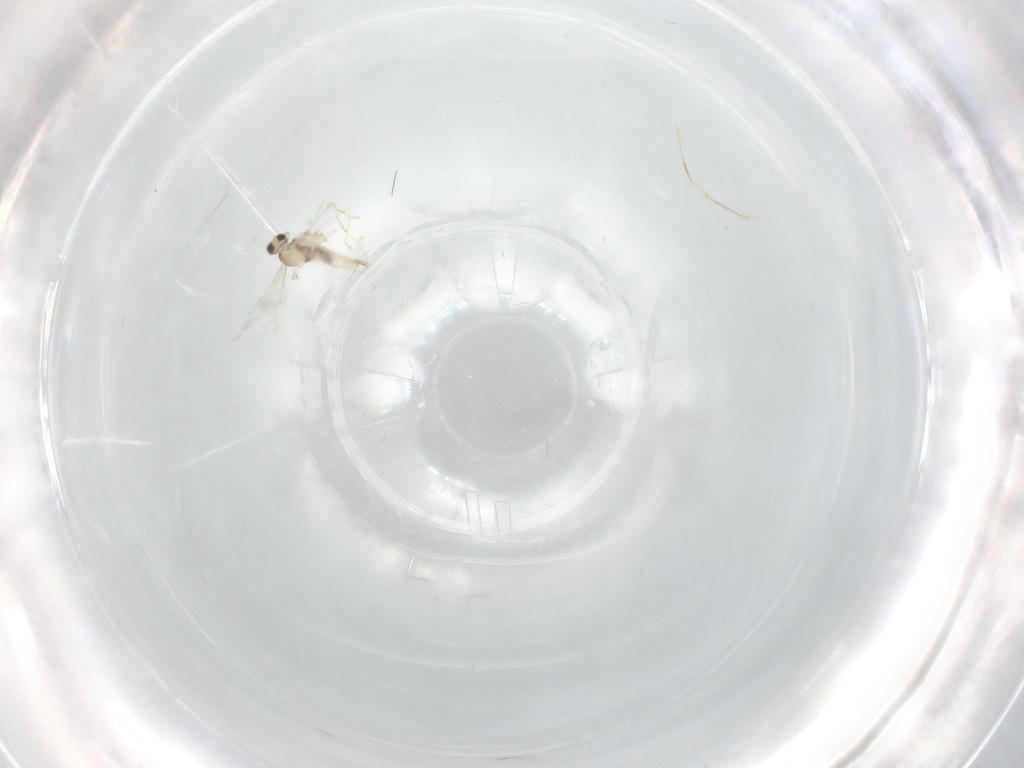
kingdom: Animalia
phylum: Arthropoda
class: Insecta
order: Diptera
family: Cecidomyiidae
